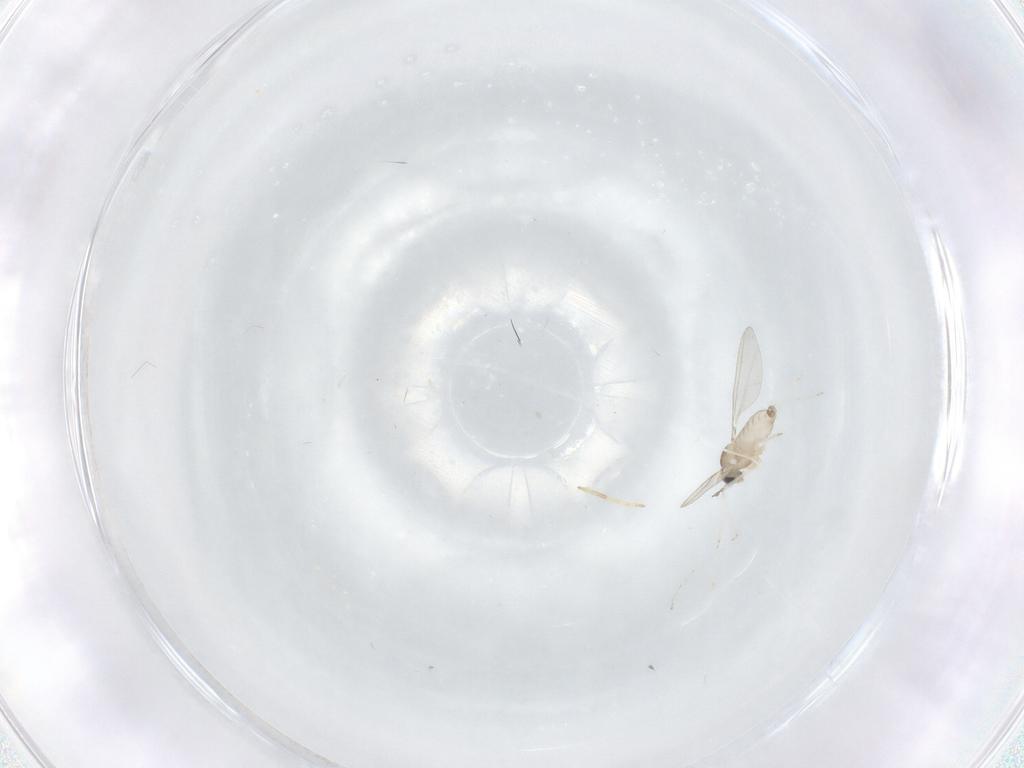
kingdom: Animalia
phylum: Arthropoda
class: Insecta
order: Diptera
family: Cecidomyiidae
